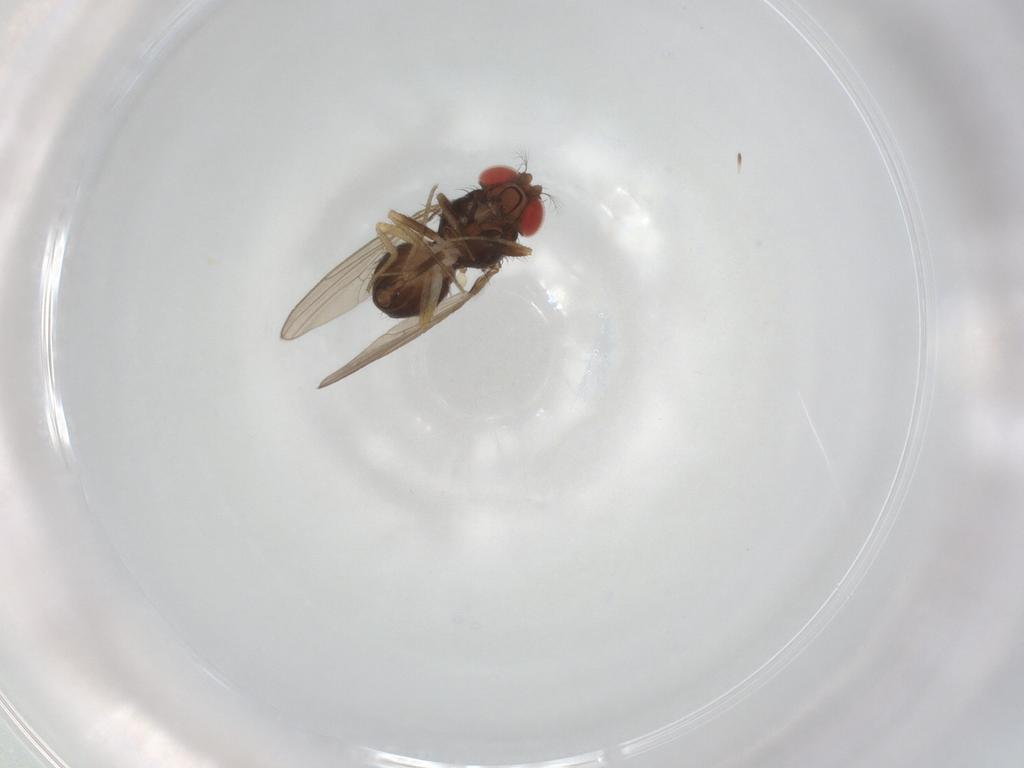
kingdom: Animalia
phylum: Arthropoda
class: Insecta
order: Diptera
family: Drosophilidae
